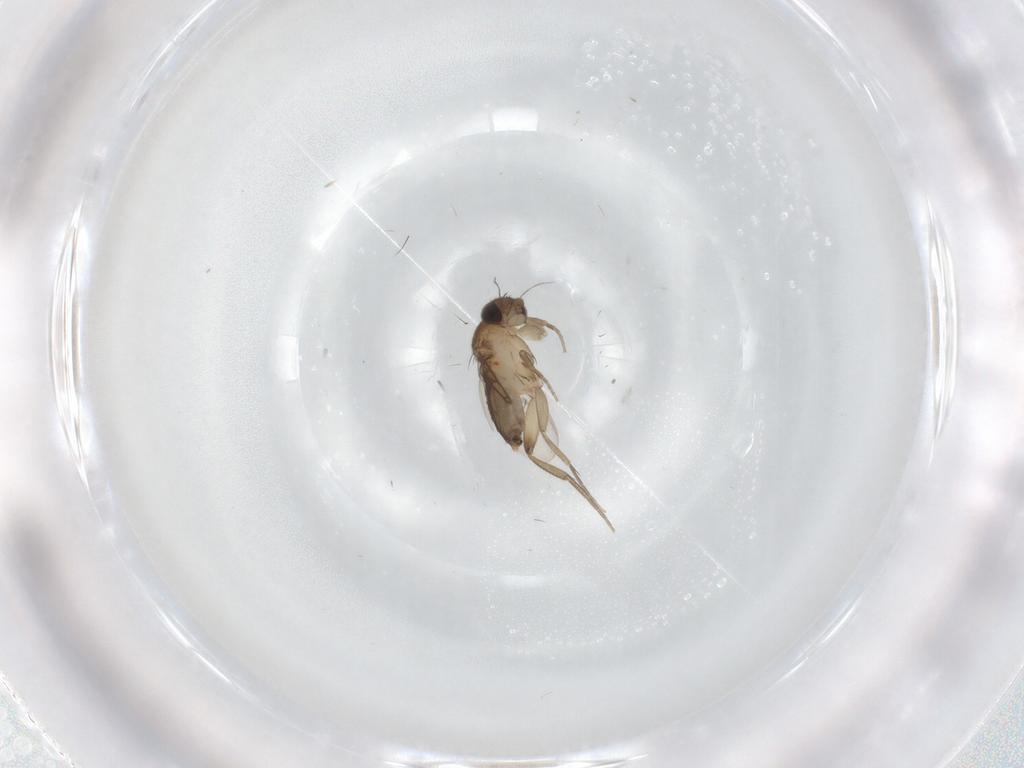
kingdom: Animalia
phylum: Arthropoda
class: Insecta
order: Diptera
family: Phoridae
